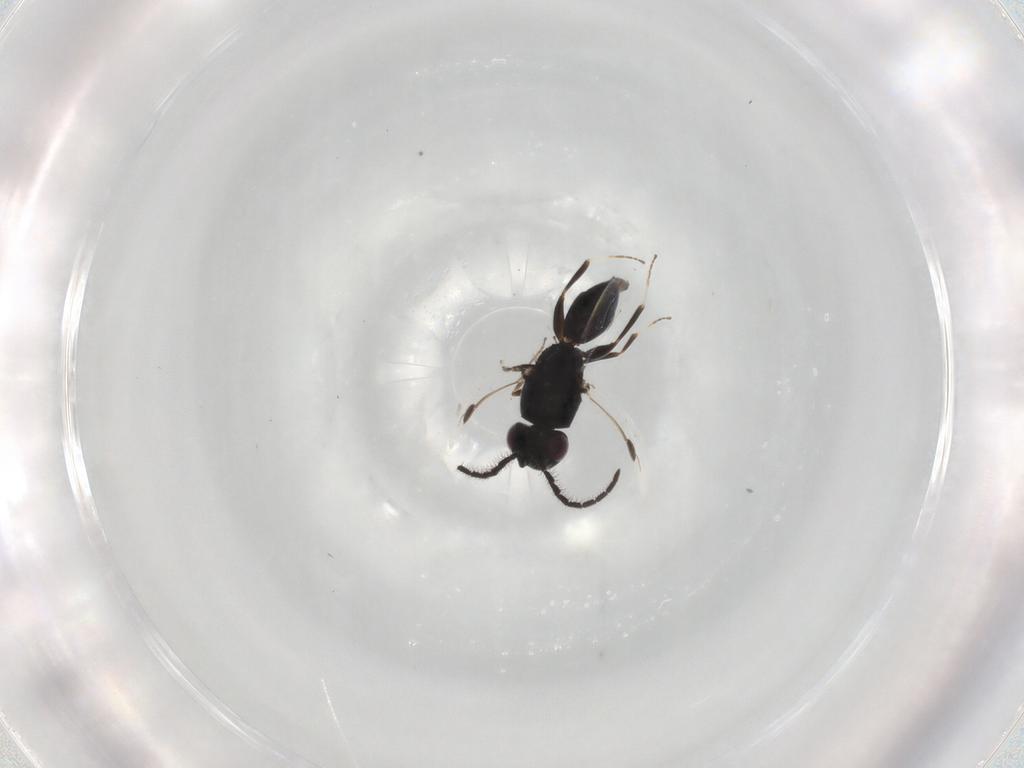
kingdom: Animalia
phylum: Arthropoda
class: Insecta
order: Hymenoptera
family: Megaspilidae
